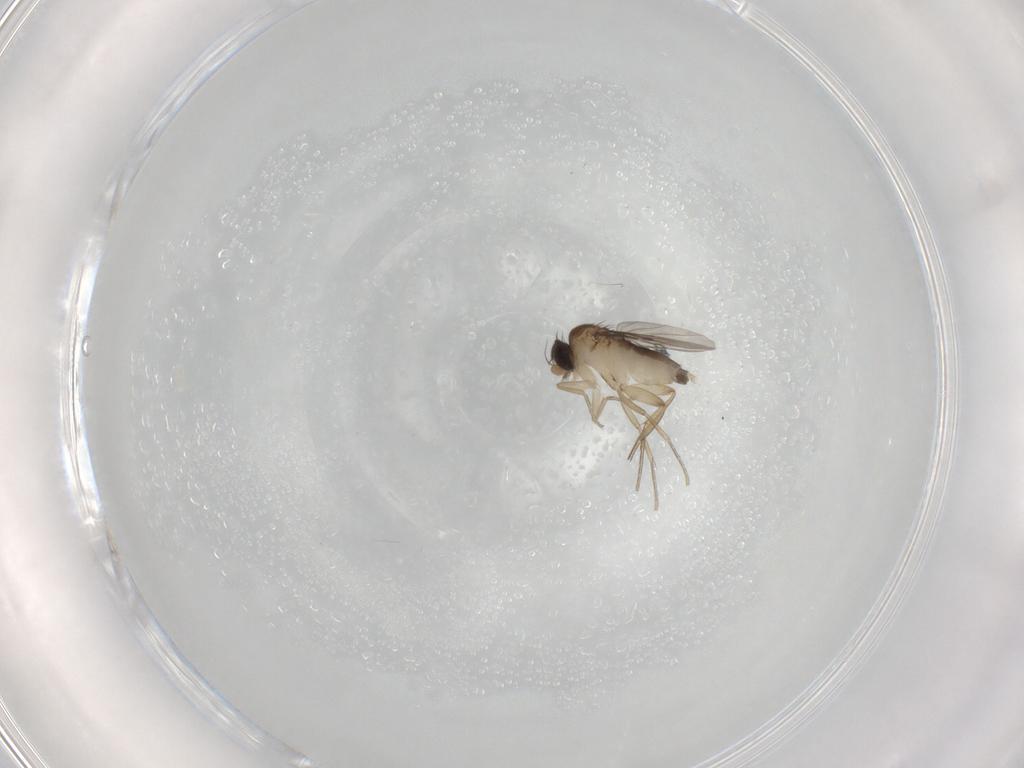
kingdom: Animalia
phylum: Arthropoda
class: Insecta
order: Diptera
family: Phoridae
